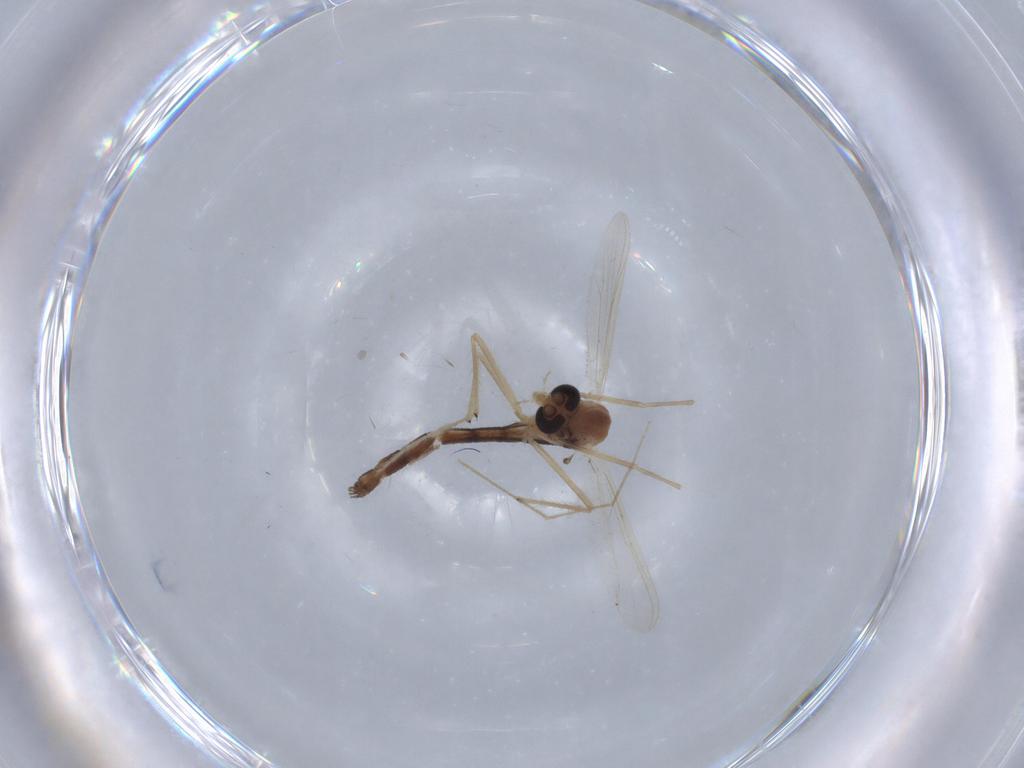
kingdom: Animalia
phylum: Arthropoda
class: Insecta
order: Diptera
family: Chironomidae
